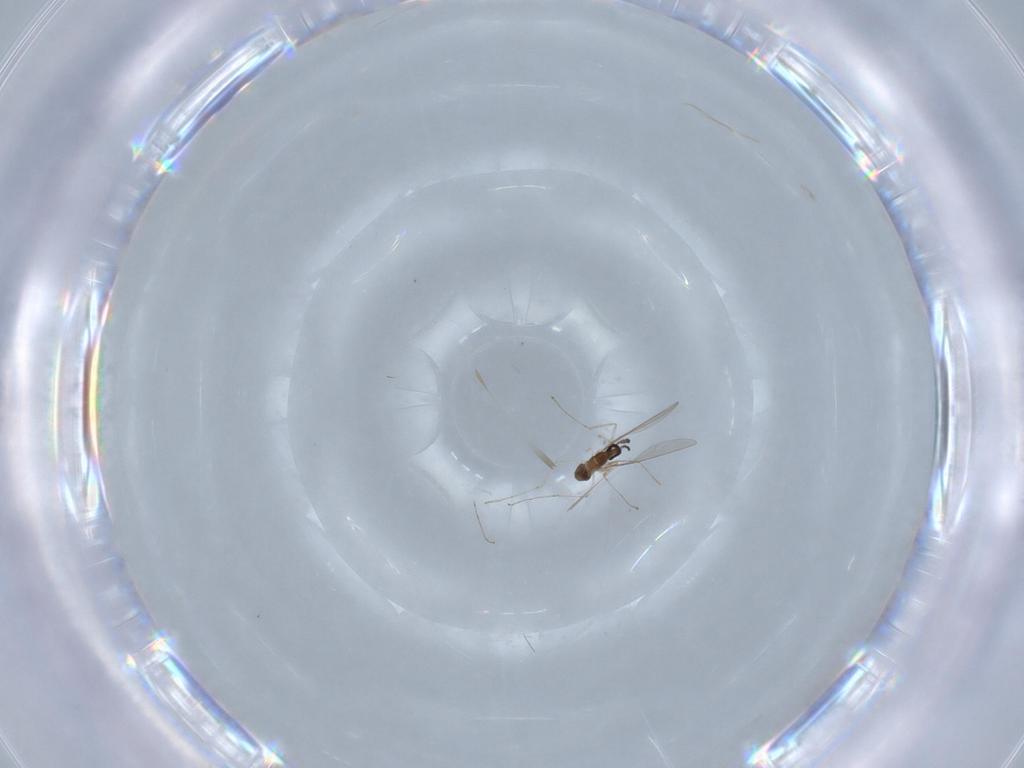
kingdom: Animalia
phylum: Arthropoda
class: Insecta
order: Diptera
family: Cecidomyiidae
